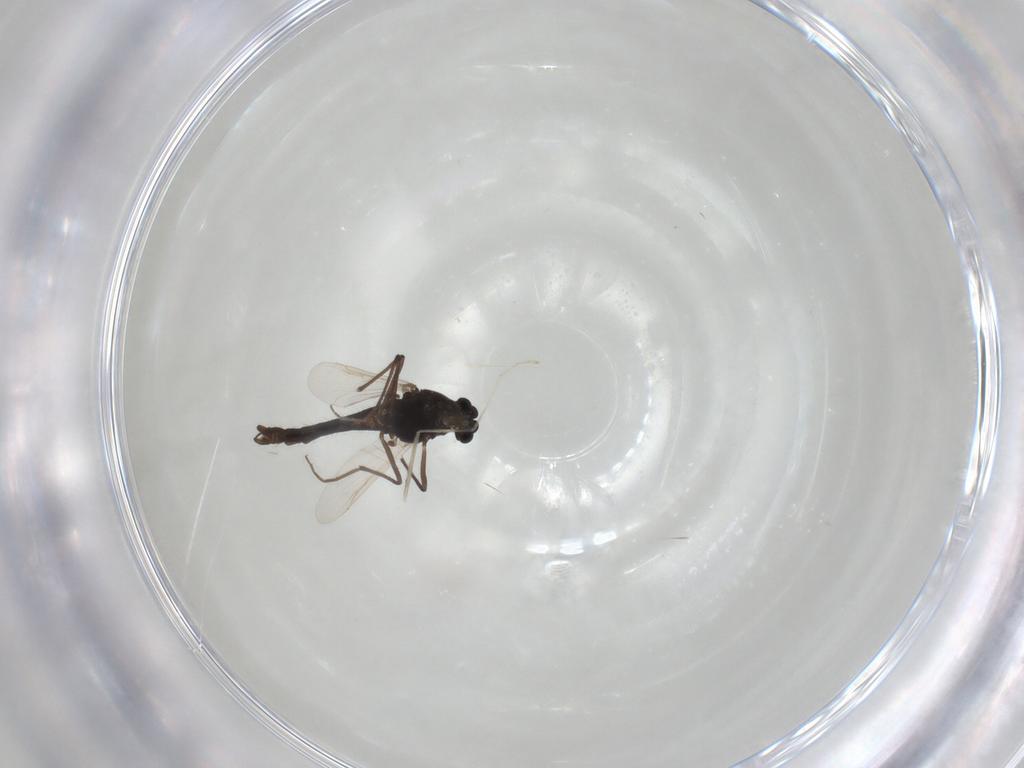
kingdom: Animalia
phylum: Arthropoda
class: Insecta
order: Diptera
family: Chironomidae
